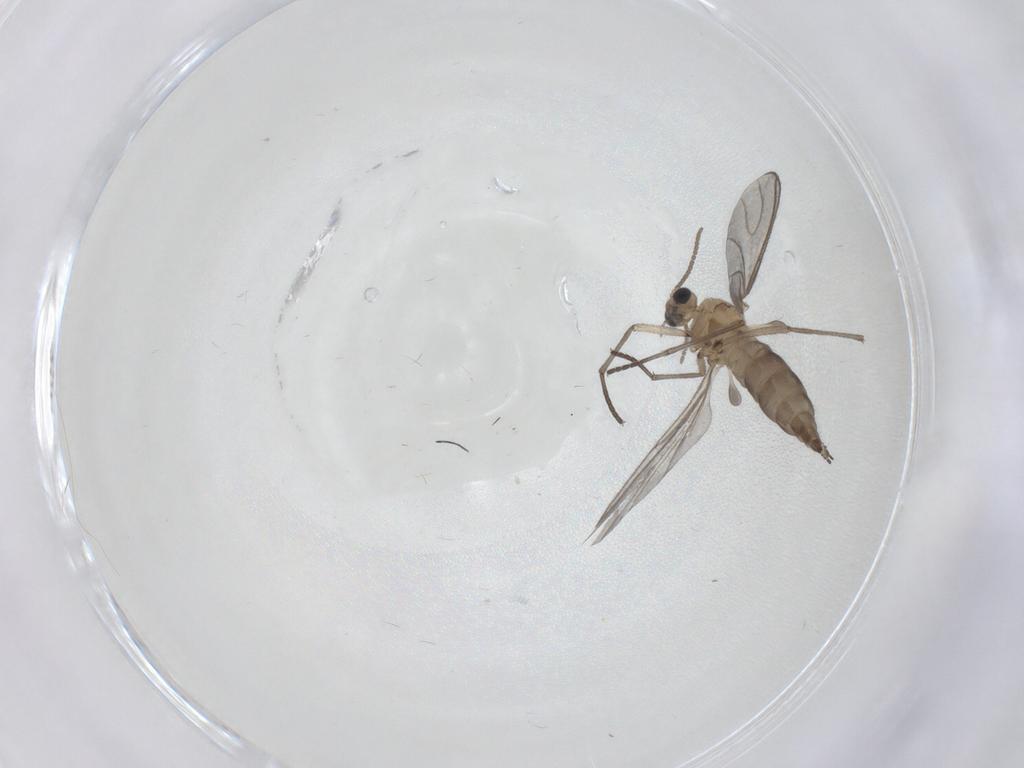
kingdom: Animalia
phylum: Arthropoda
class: Insecta
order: Diptera
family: Sciaridae
